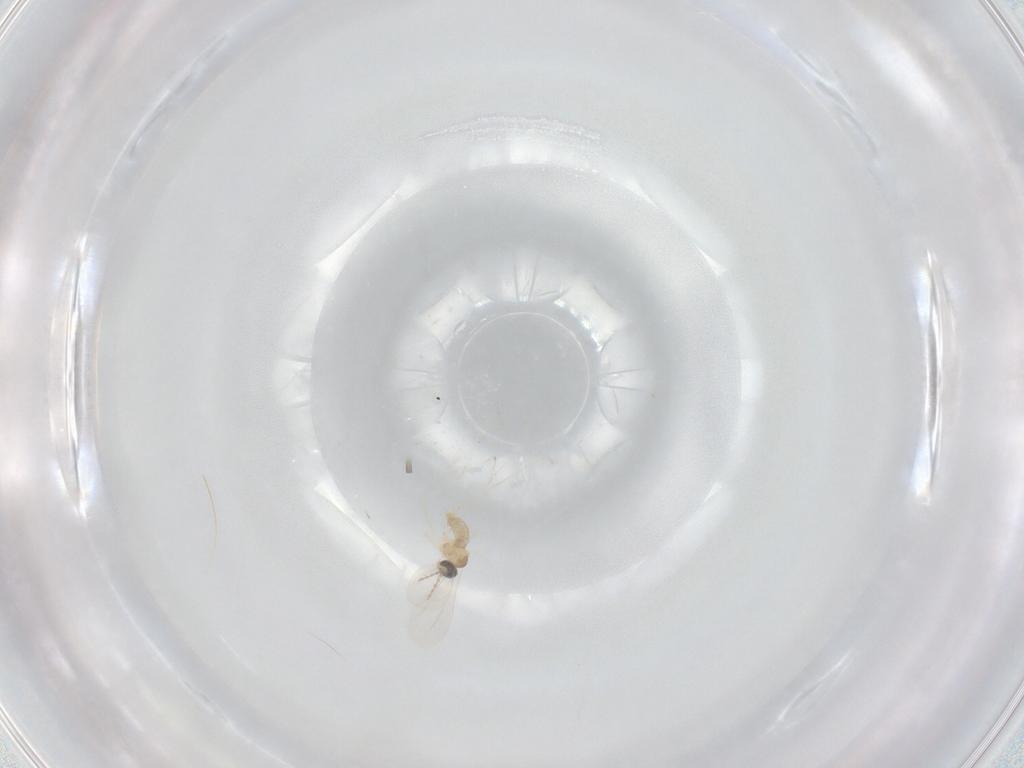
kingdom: Animalia
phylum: Arthropoda
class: Insecta
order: Diptera
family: Cecidomyiidae
